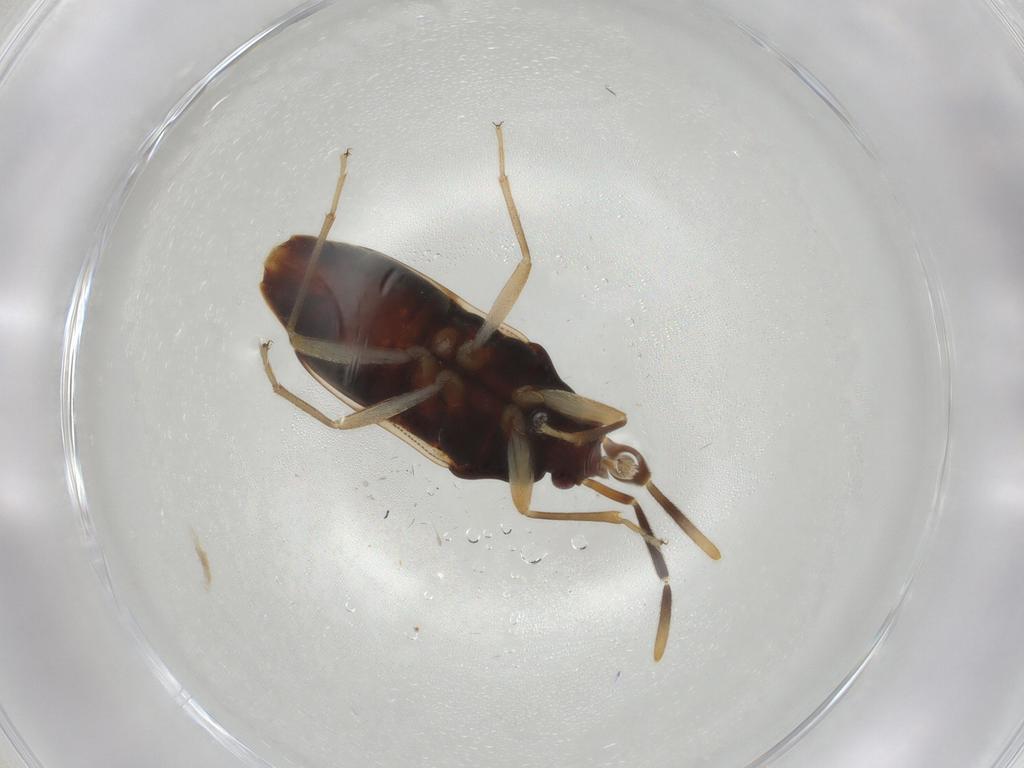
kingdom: Animalia
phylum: Arthropoda
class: Insecta
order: Hemiptera
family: Rhyparochromidae
